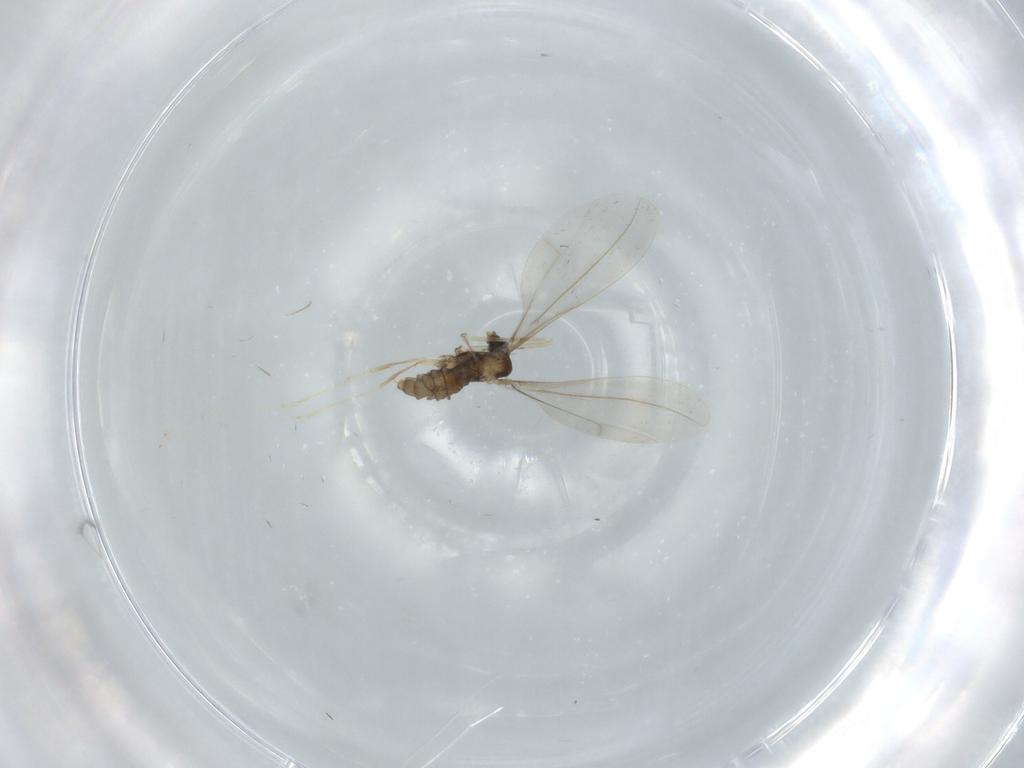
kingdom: Animalia
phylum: Arthropoda
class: Insecta
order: Diptera
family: Cecidomyiidae
